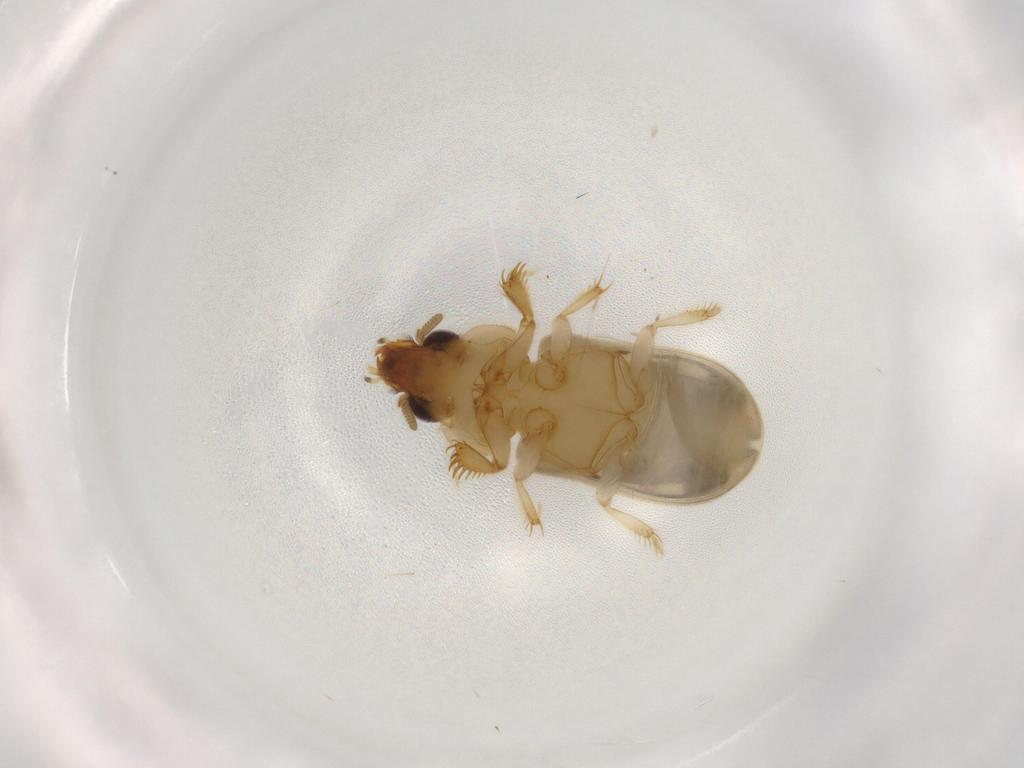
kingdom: Animalia
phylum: Arthropoda
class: Insecta
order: Coleoptera
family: Heteroceridae
